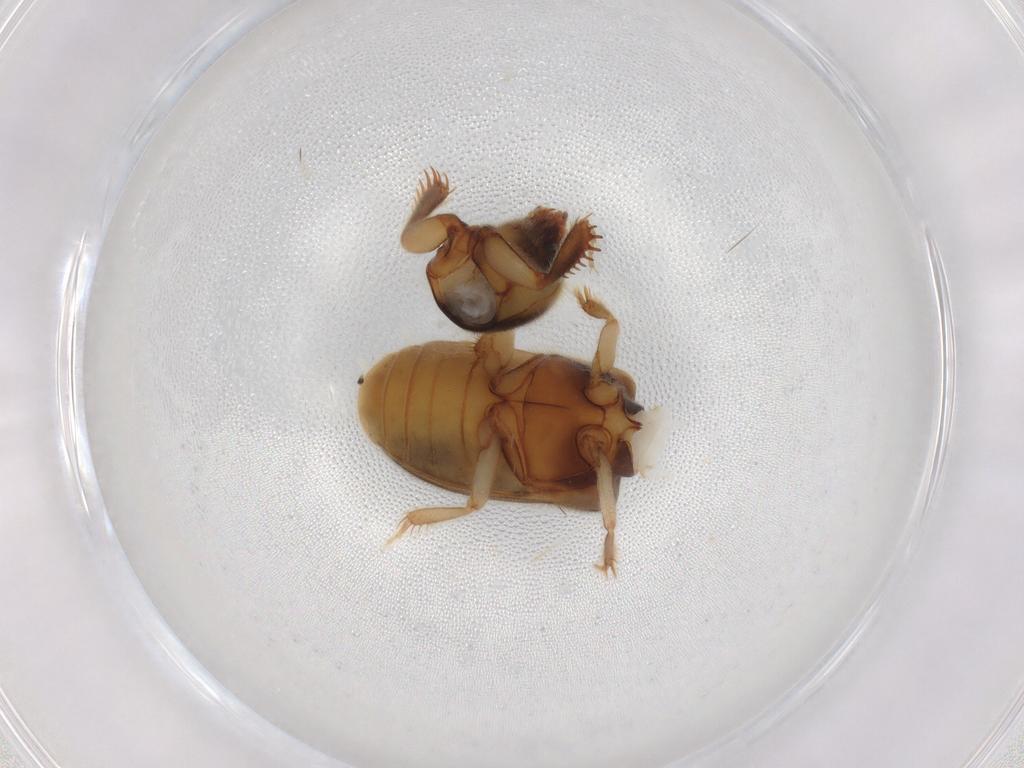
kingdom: Animalia
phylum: Arthropoda
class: Insecta
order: Coleoptera
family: Heteroceridae
